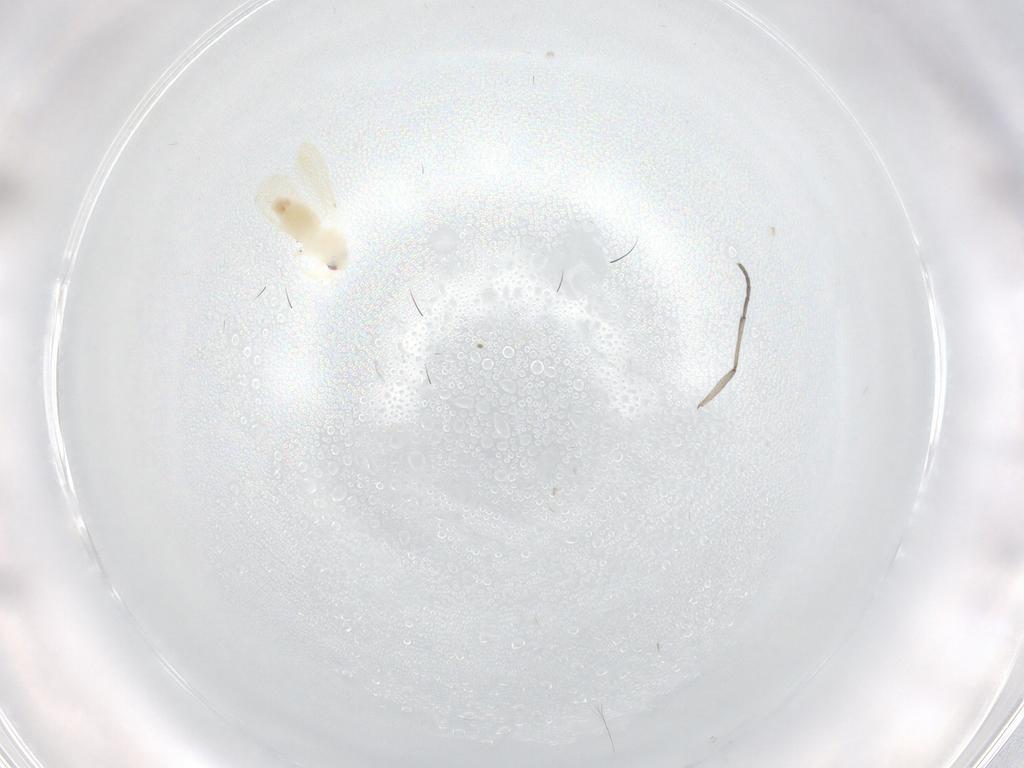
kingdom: Animalia
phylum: Arthropoda
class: Insecta
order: Hemiptera
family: Aleyrodidae
